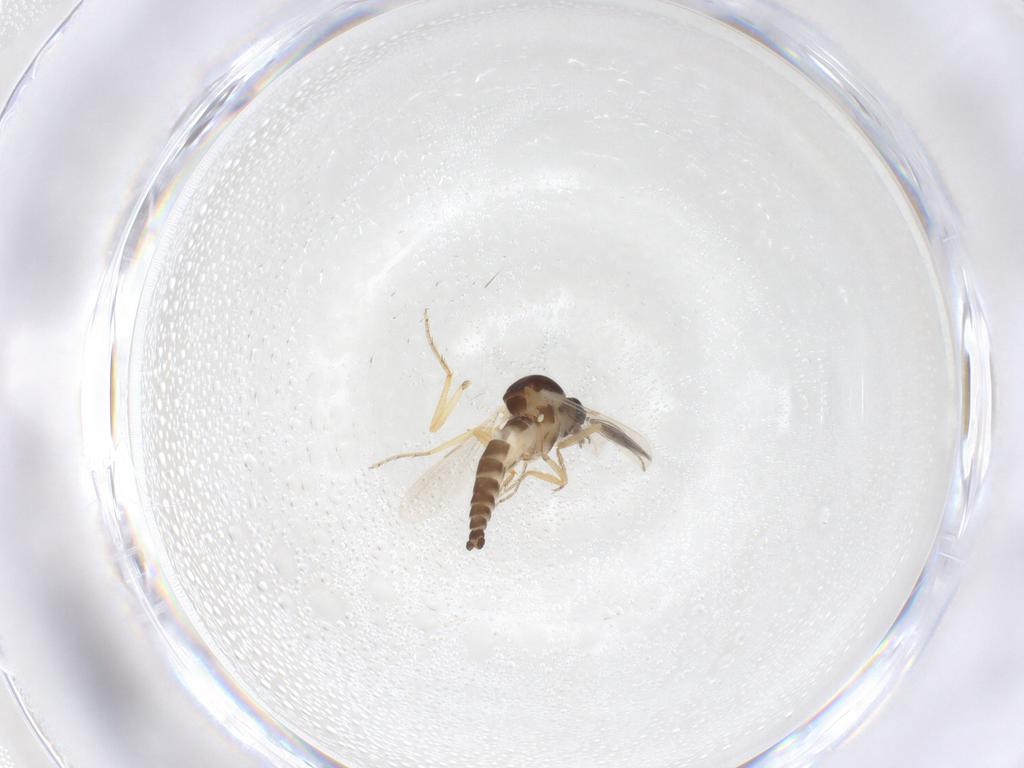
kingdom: Animalia
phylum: Arthropoda
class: Insecta
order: Diptera
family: Ceratopogonidae
